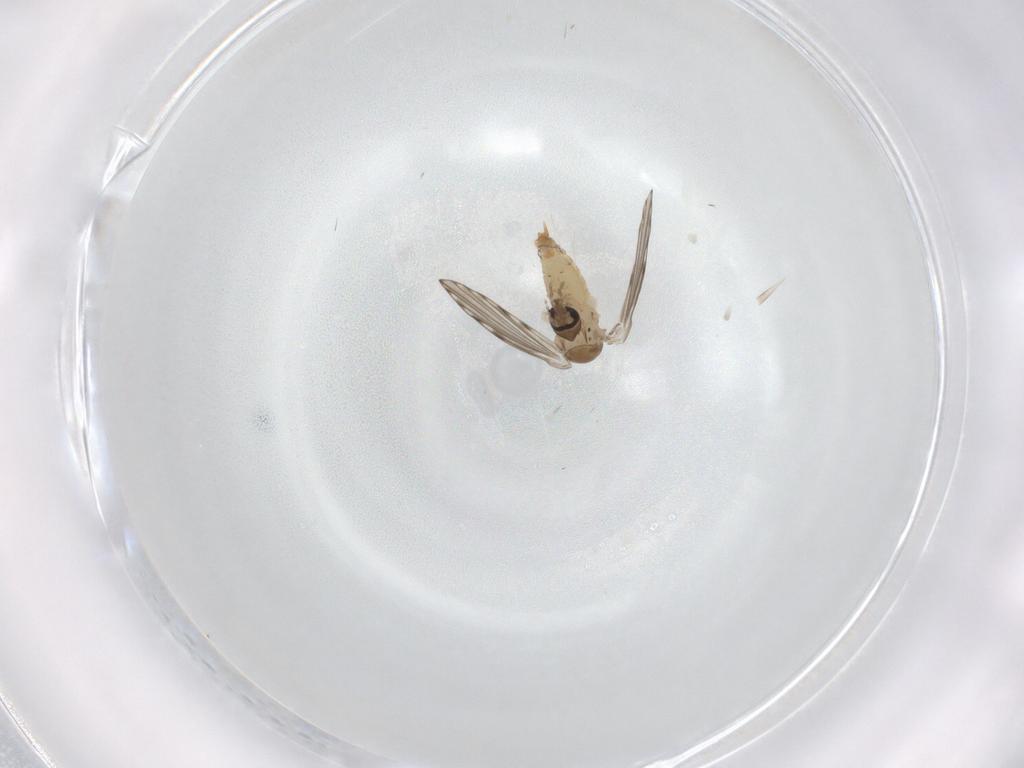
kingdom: Animalia
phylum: Arthropoda
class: Insecta
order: Diptera
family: Psychodidae
